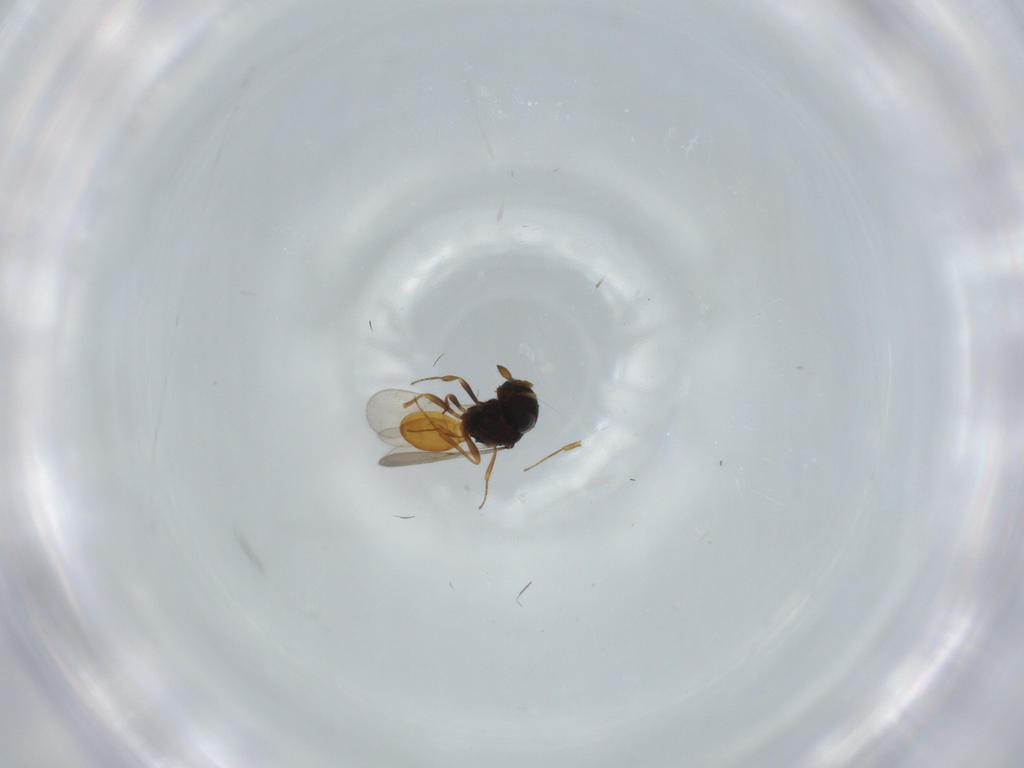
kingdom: Animalia
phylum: Arthropoda
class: Insecta
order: Hymenoptera
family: Scelionidae
